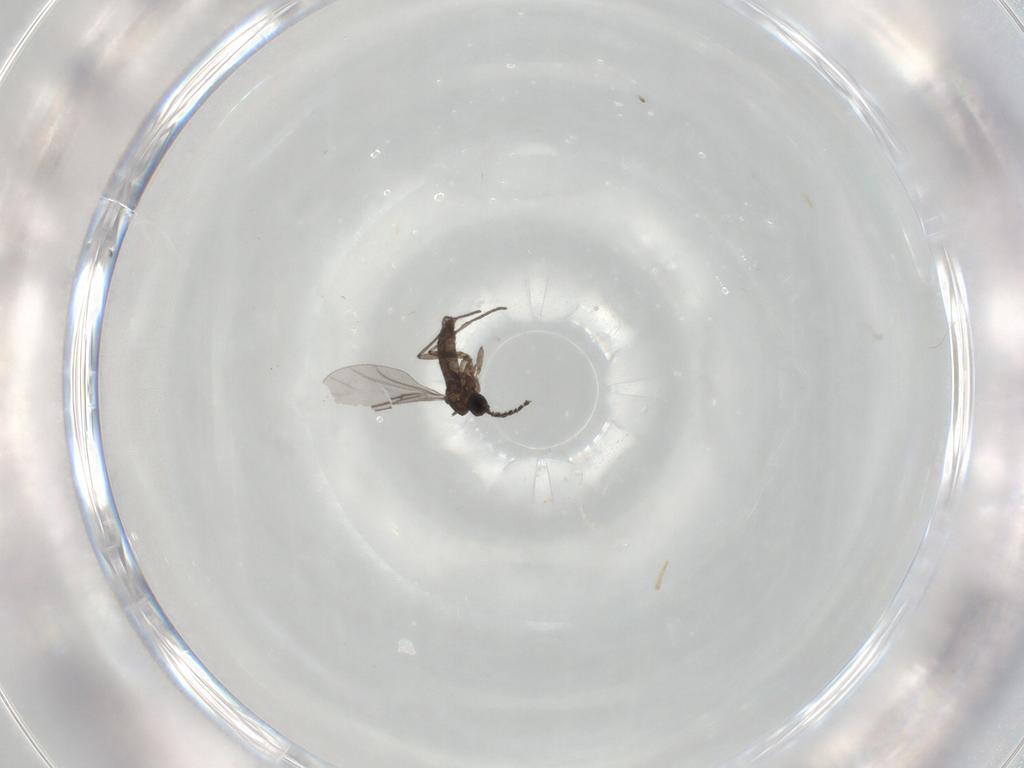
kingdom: Animalia
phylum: Arthropoda
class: Insecta
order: Diptera
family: Cecidomyiidae
